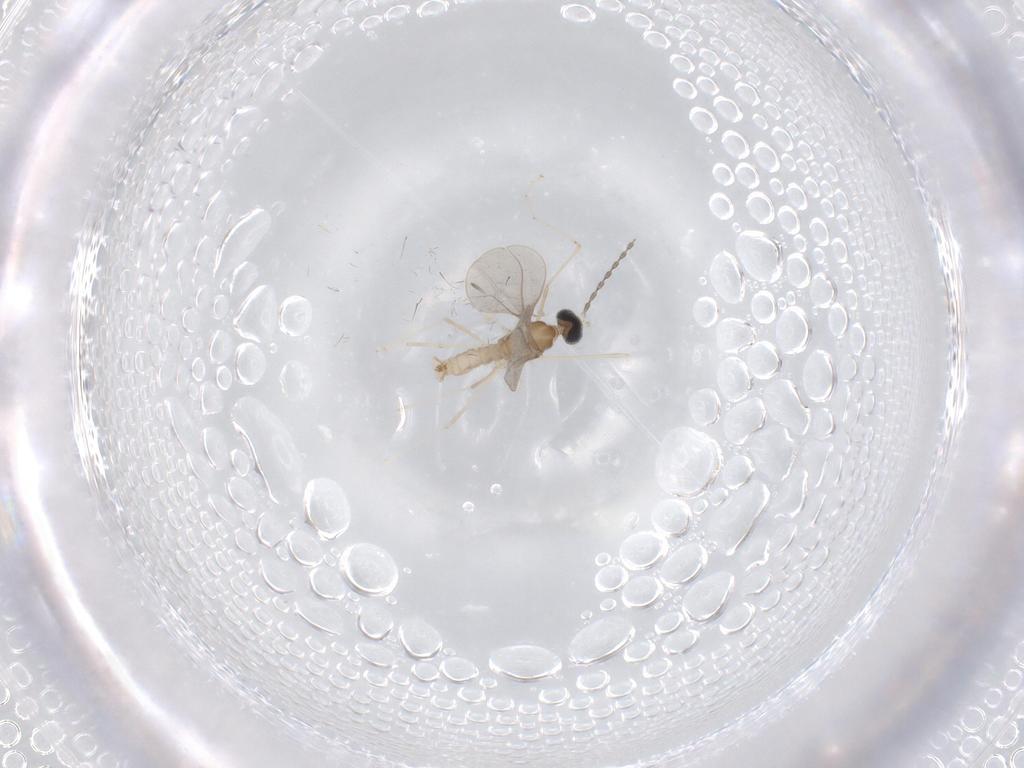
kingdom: Animalia
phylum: Arthropoda
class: Insecta
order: Diptera
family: Cecidomyiidae
